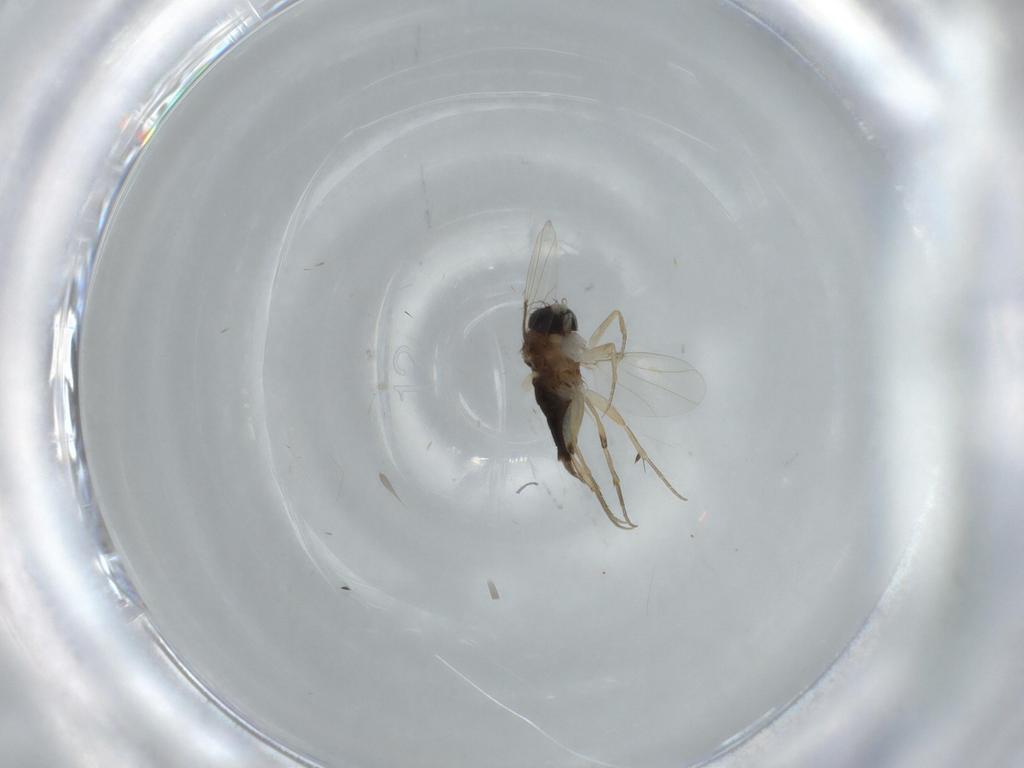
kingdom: Animalia
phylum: Arthropoda
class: Insecta
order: Diptera
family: Phoridae
